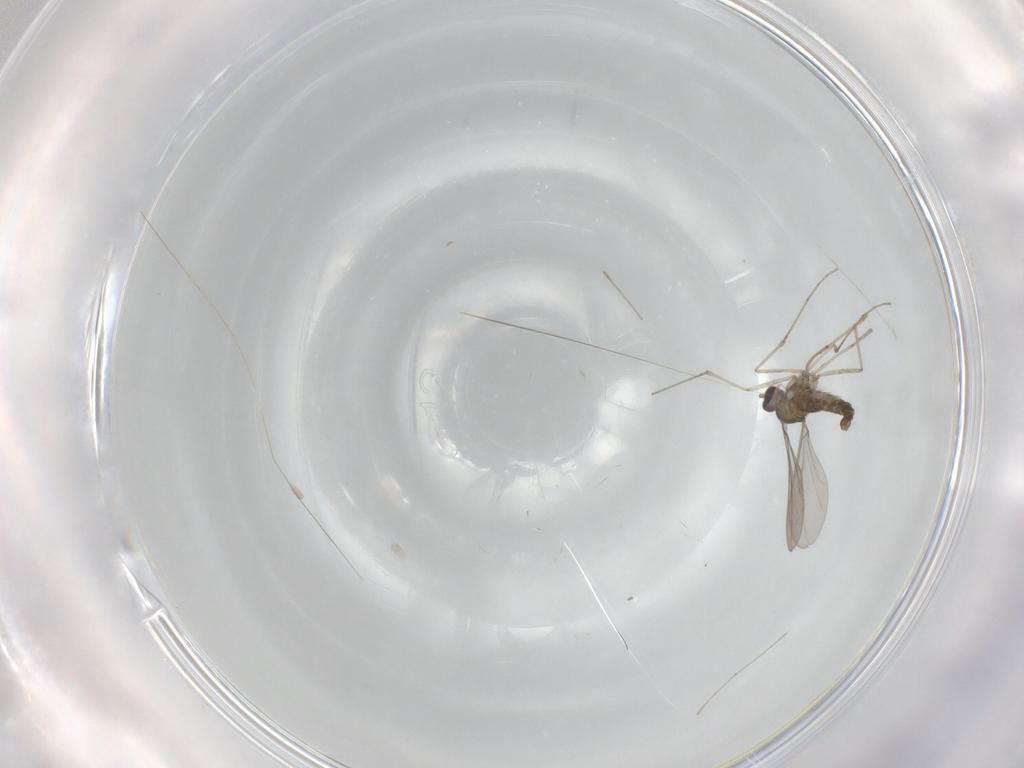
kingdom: Animalia
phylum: Arthropoda
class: Insecta
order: Diptera
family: Cecidomyiidae
